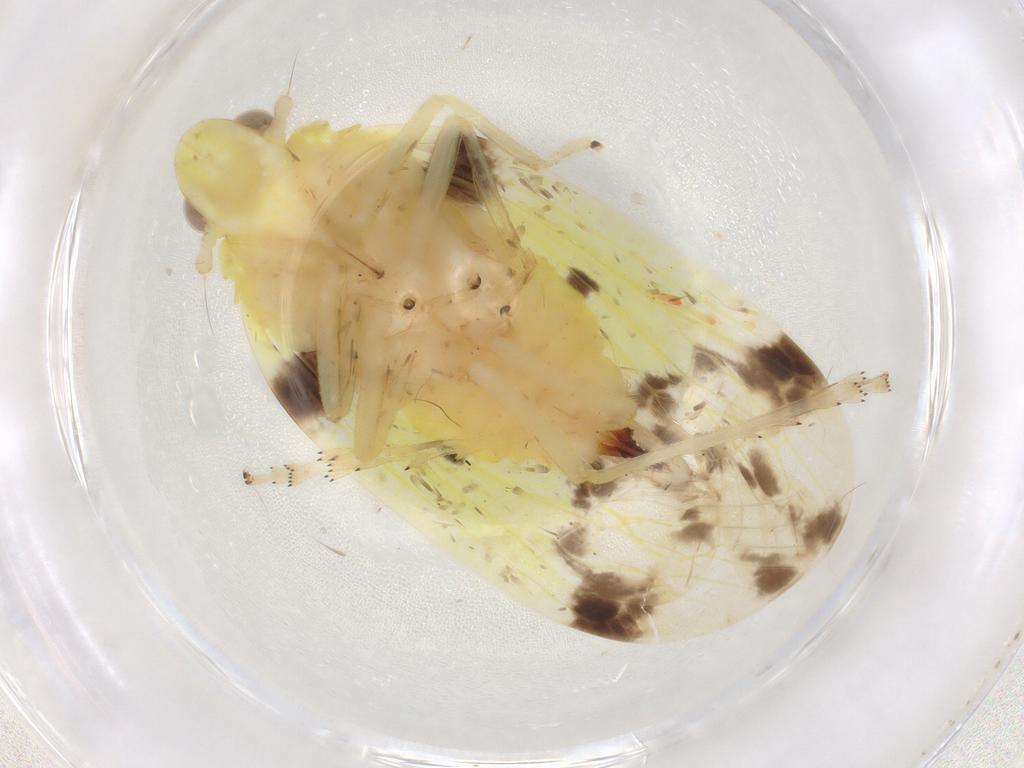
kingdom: Animalia
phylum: Arthropoda
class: Insecta
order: Hemiptera
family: Tropiduchidae
